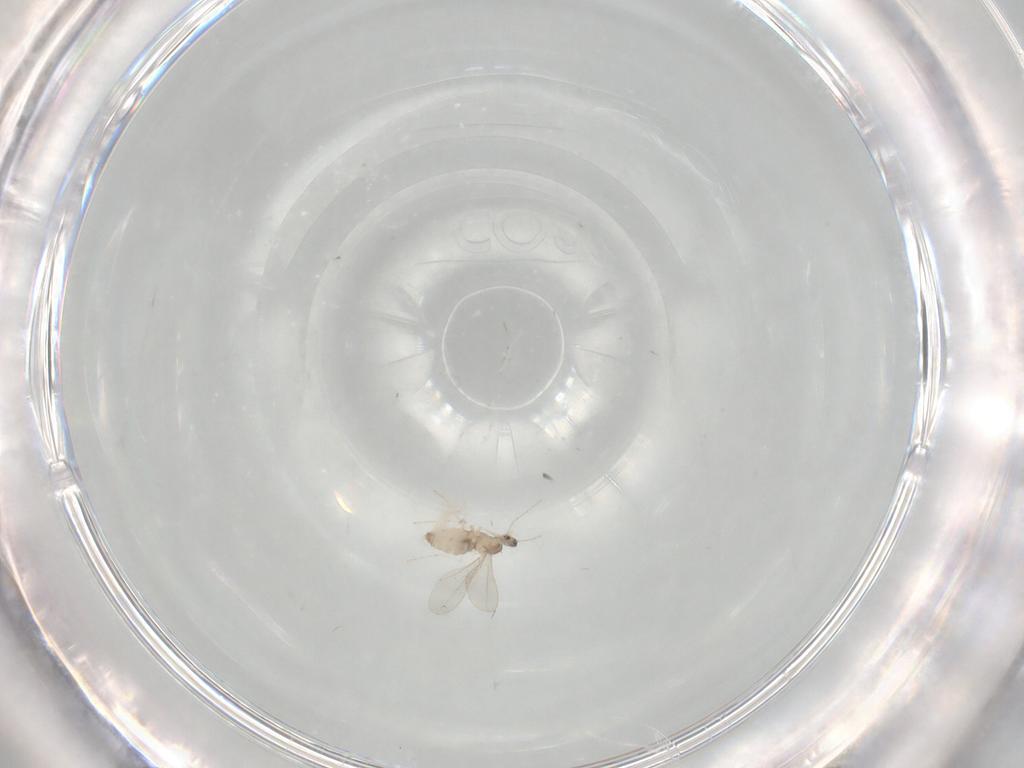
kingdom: Animalia
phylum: Arthropoda
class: Insecta
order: Diptera
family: Cecidomyiidae
